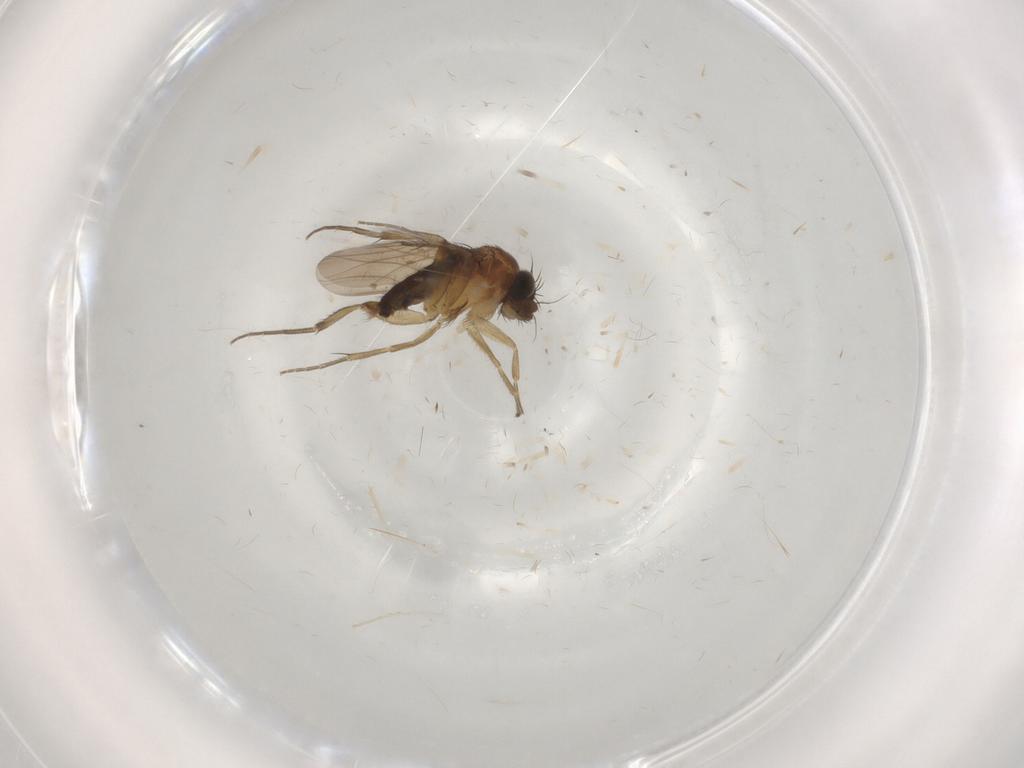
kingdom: Animalia
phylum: Arthropoda
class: Insecta
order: Diptera
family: Phoridae
